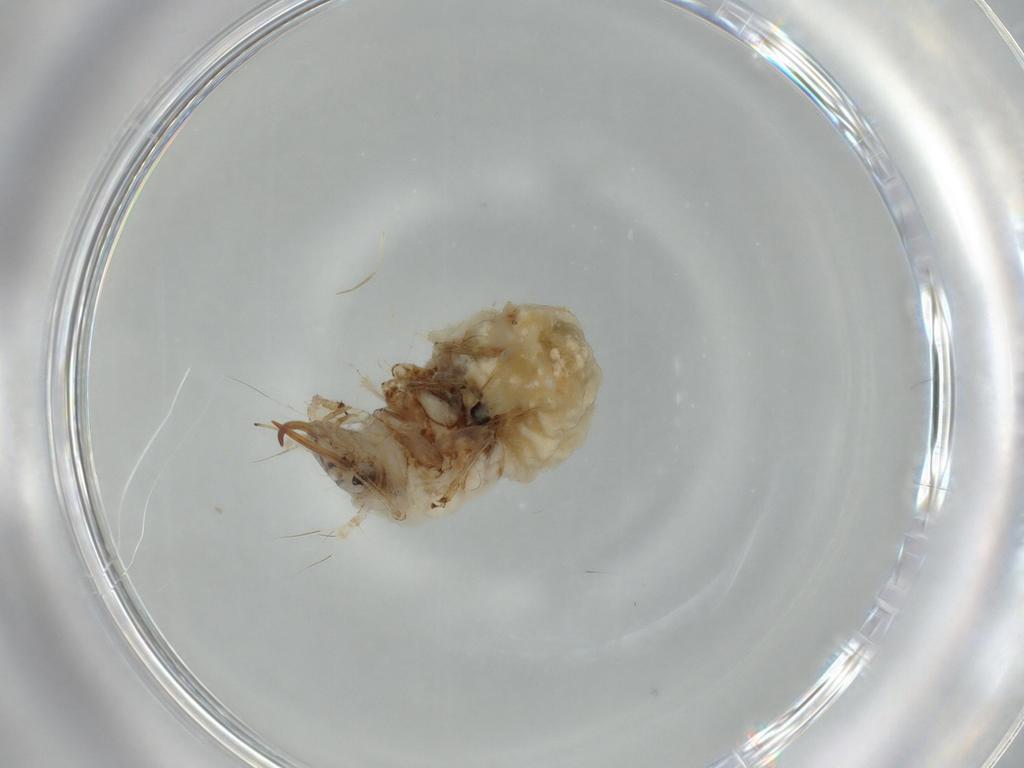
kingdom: Animalia
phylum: Arthropoda
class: Insecta
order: Neuroptera
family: Chrysopidae
